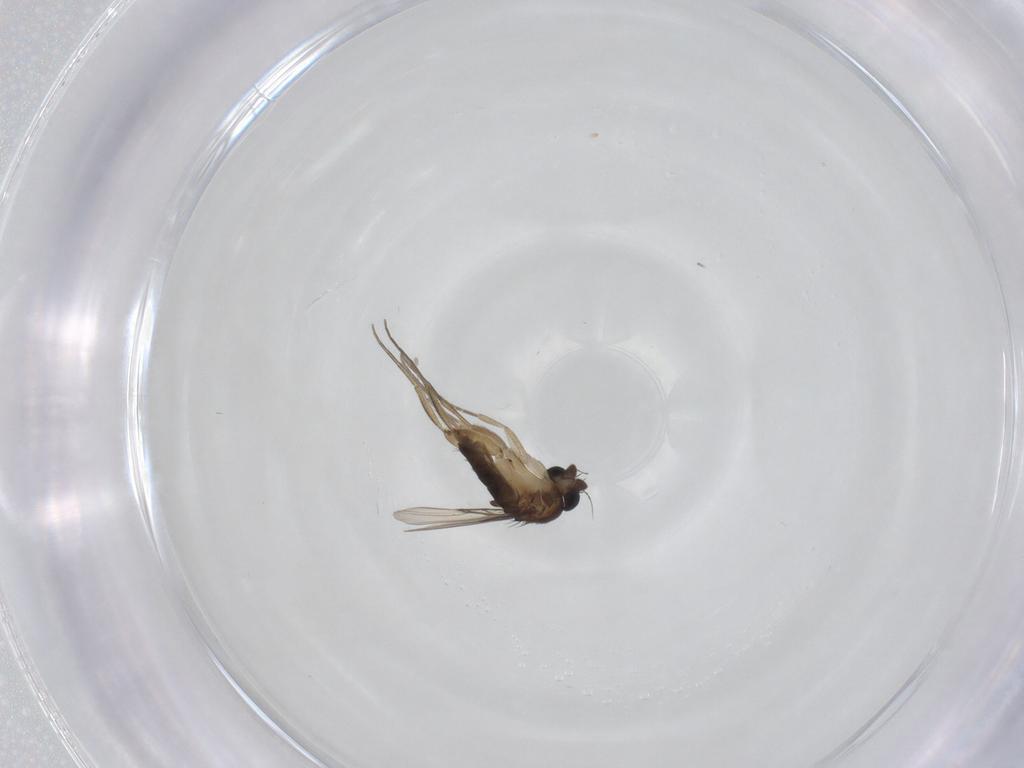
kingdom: Animalia
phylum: Arthropoda
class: Insecta
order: Diptera
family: Phoridae
